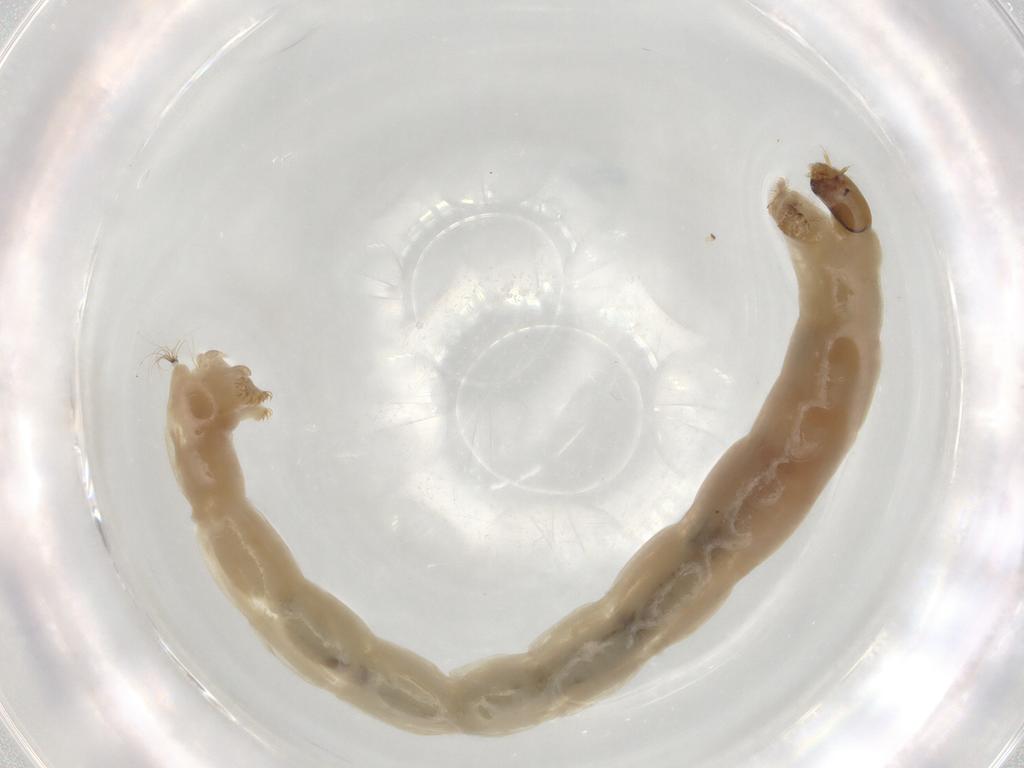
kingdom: Animalia
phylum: Arthropoda
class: Insecta
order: Diptera
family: Chironomidae
